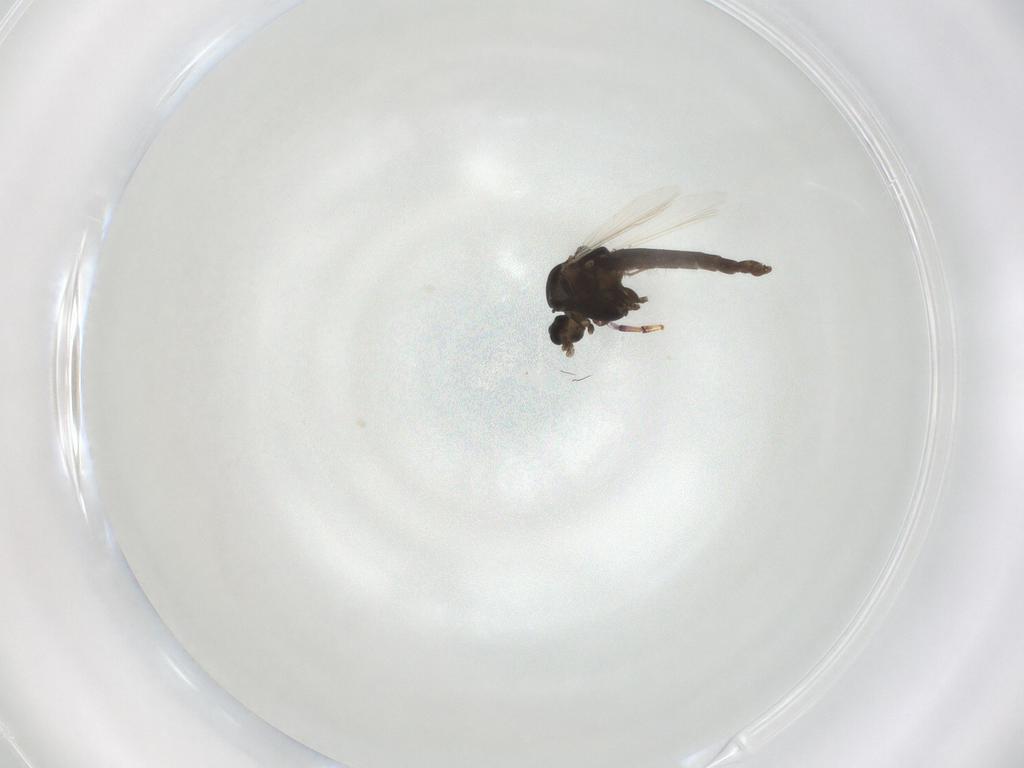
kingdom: Animalia
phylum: Arthropoda
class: Insecta
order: Diptera
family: Chironomidae
